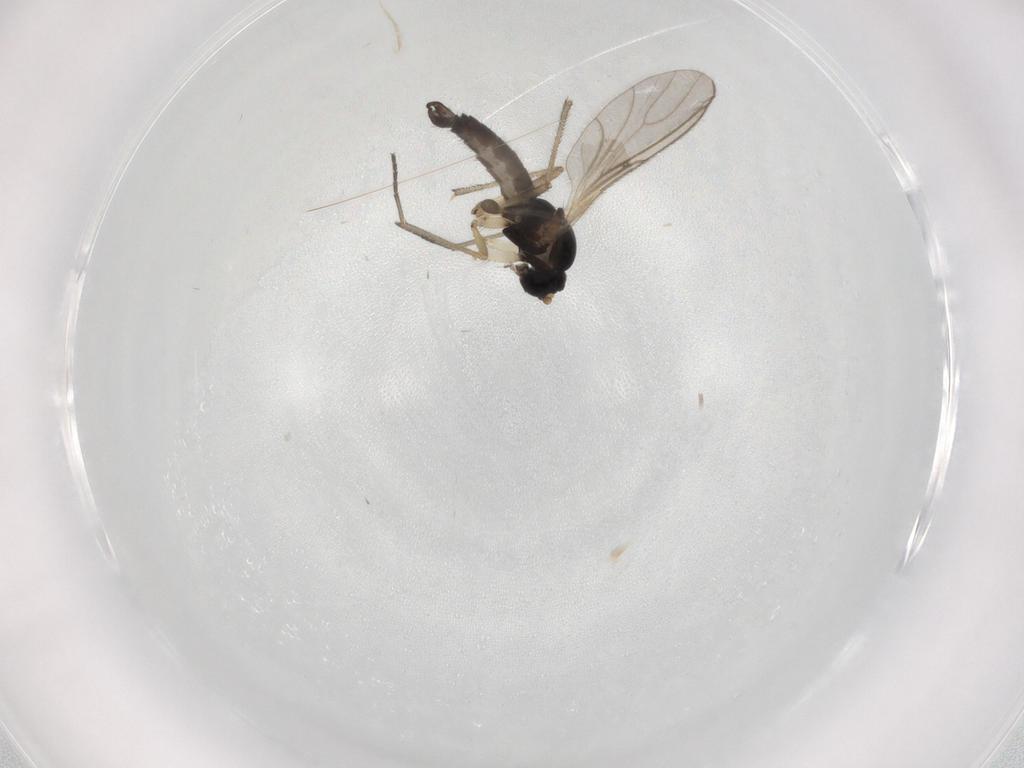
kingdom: Animalia
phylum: Arthropoda
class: Insecta
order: Diptera
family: Sciaridae
